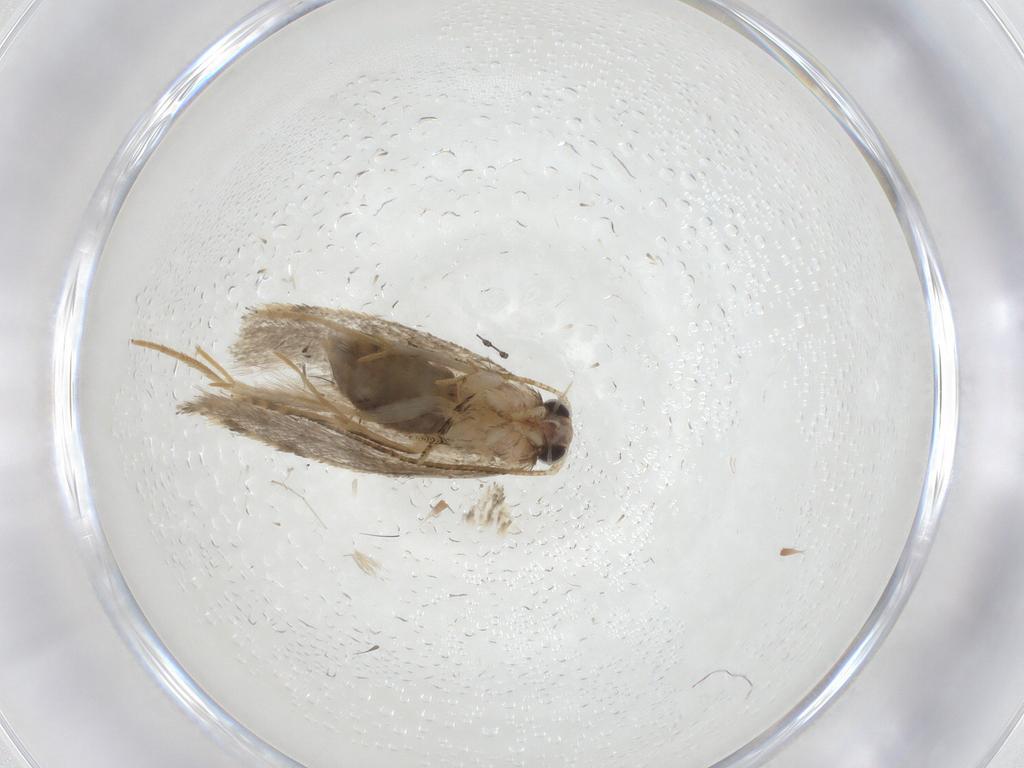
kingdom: Animalia
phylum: Arthropoda
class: Insecta
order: Lepidoptera
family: Tineidae
